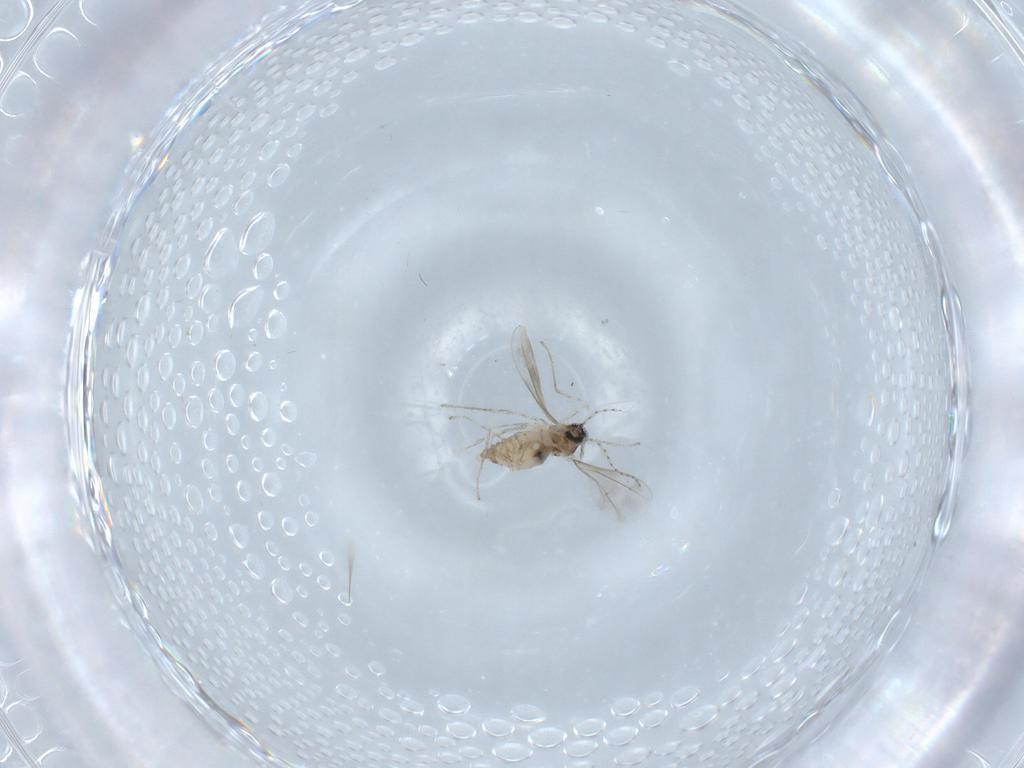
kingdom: Animalia
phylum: Arthropoda
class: Insecta
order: Diptera
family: Cecidomyiidae
